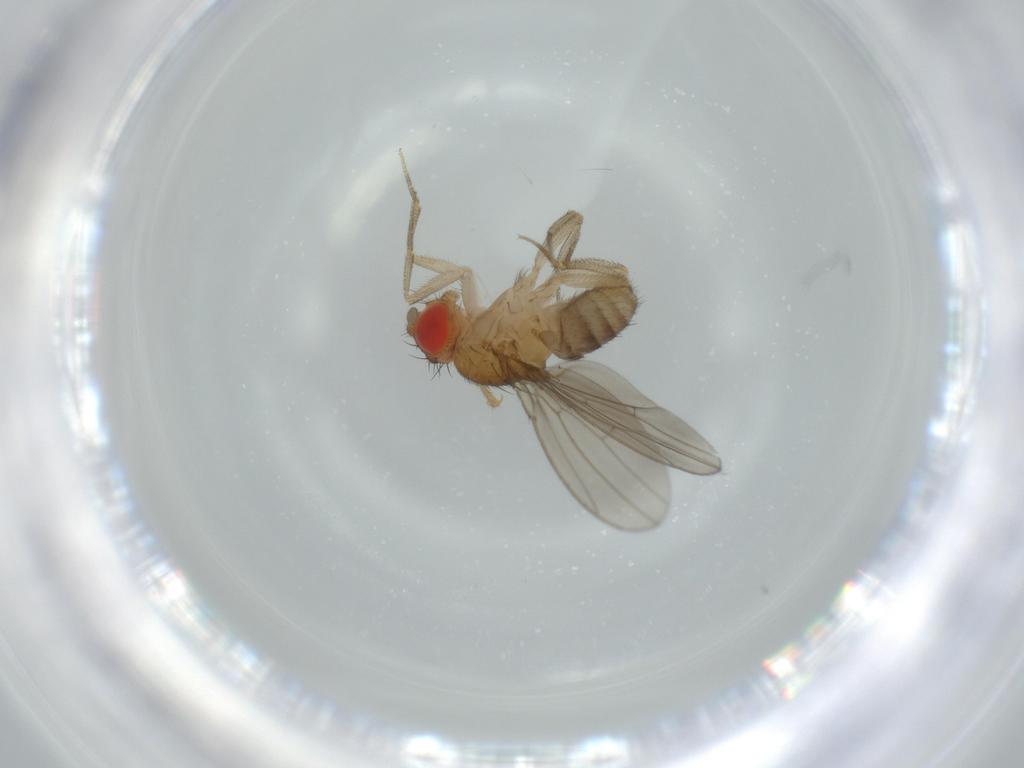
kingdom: Animalia
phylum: Arthropoda
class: Insecta
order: Diptera
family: Drosophilidae
